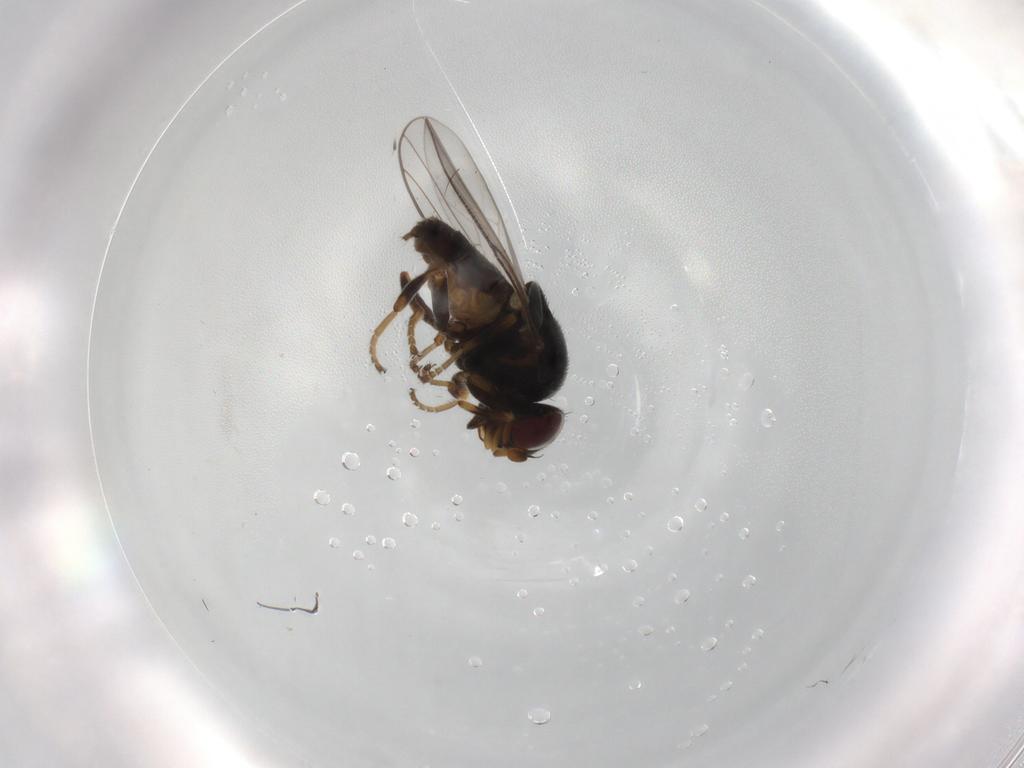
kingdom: Animalia
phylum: Arthropoda
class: Insecta
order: Diptera
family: Chloropidae
